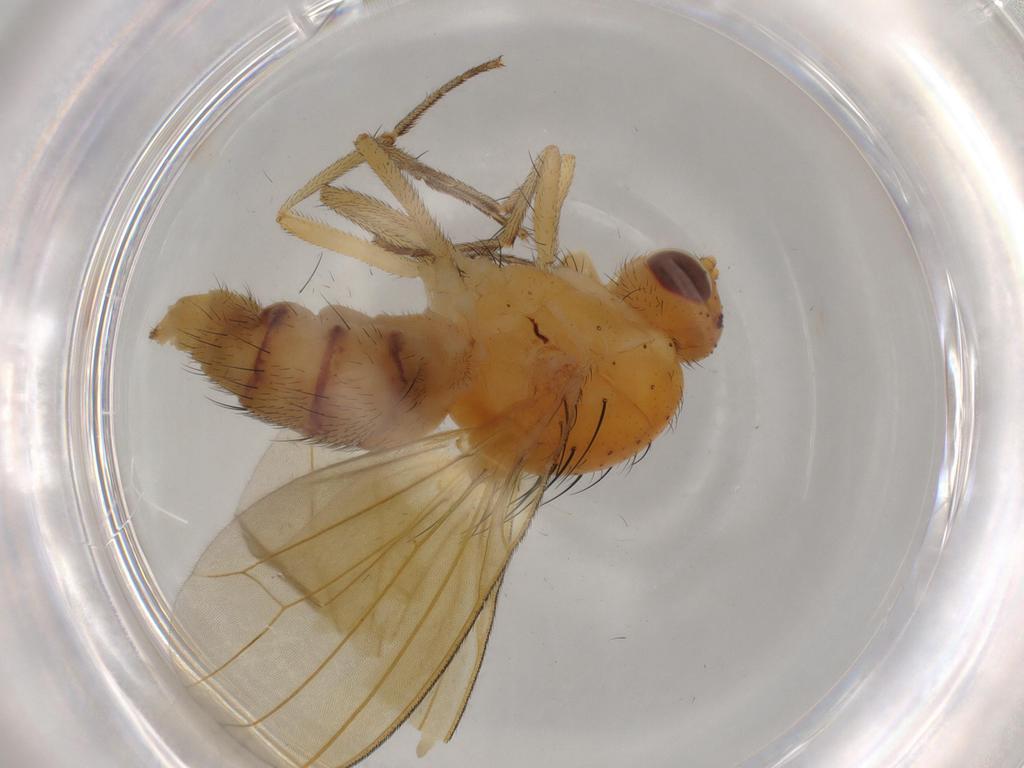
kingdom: Animalia
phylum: Arthropoda
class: Insecta
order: Diptera
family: Hybotidae
